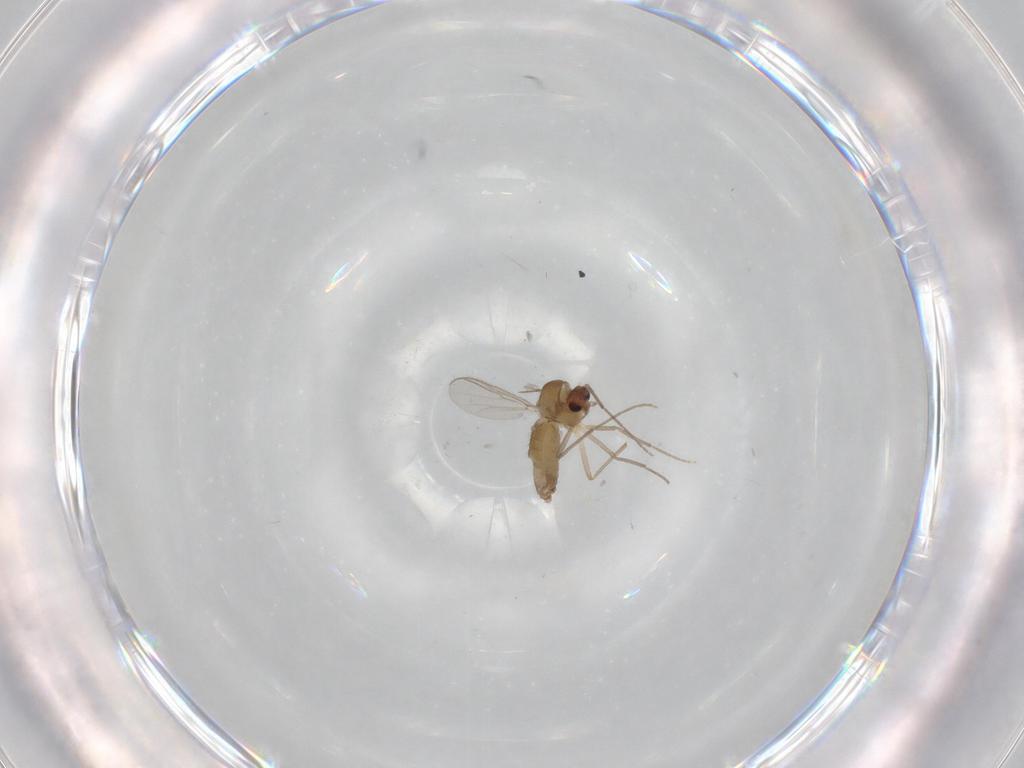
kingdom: Animalia
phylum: Arthropoda
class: Insecta
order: Diptera
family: Chironomidae
